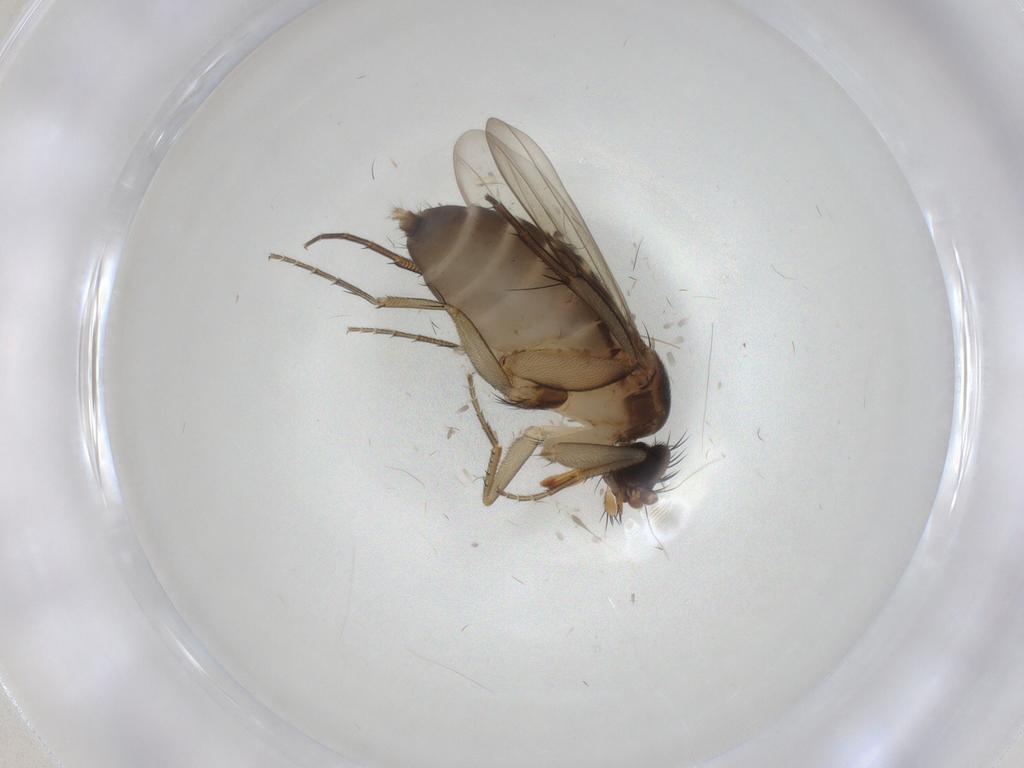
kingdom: Animalia
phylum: Arthropoda
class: Insecta
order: Diptera
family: Phoridae
